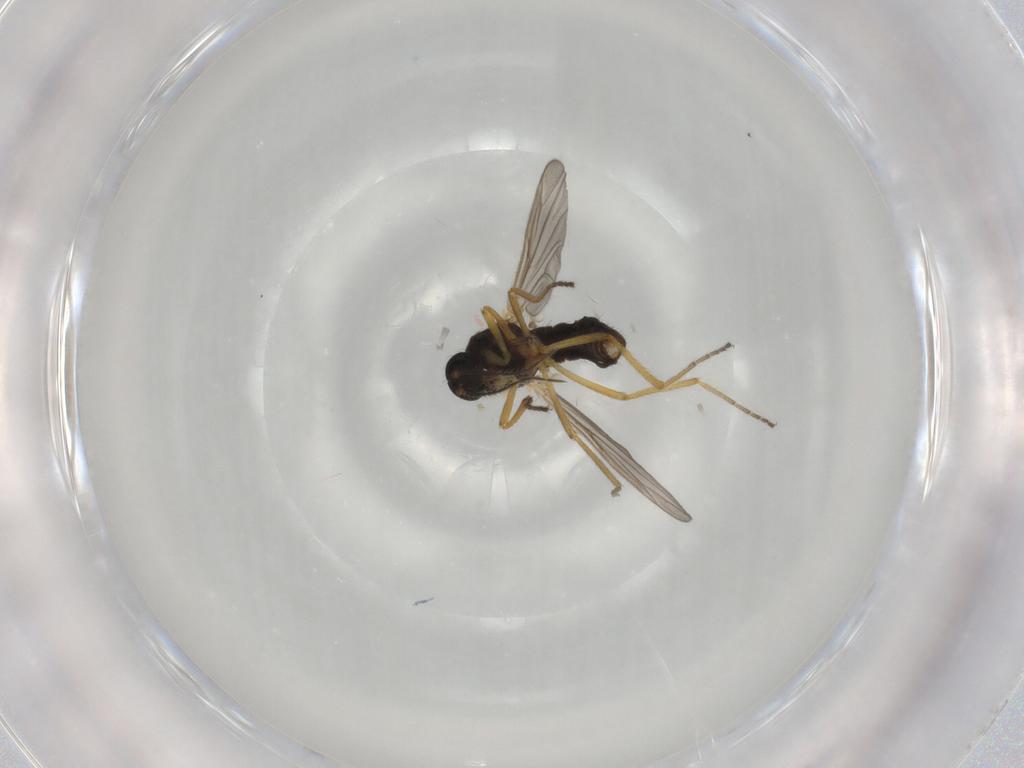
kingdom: Animalia
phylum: Arthropoda
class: Insecta
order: Diptera
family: Ceratopogonidae
